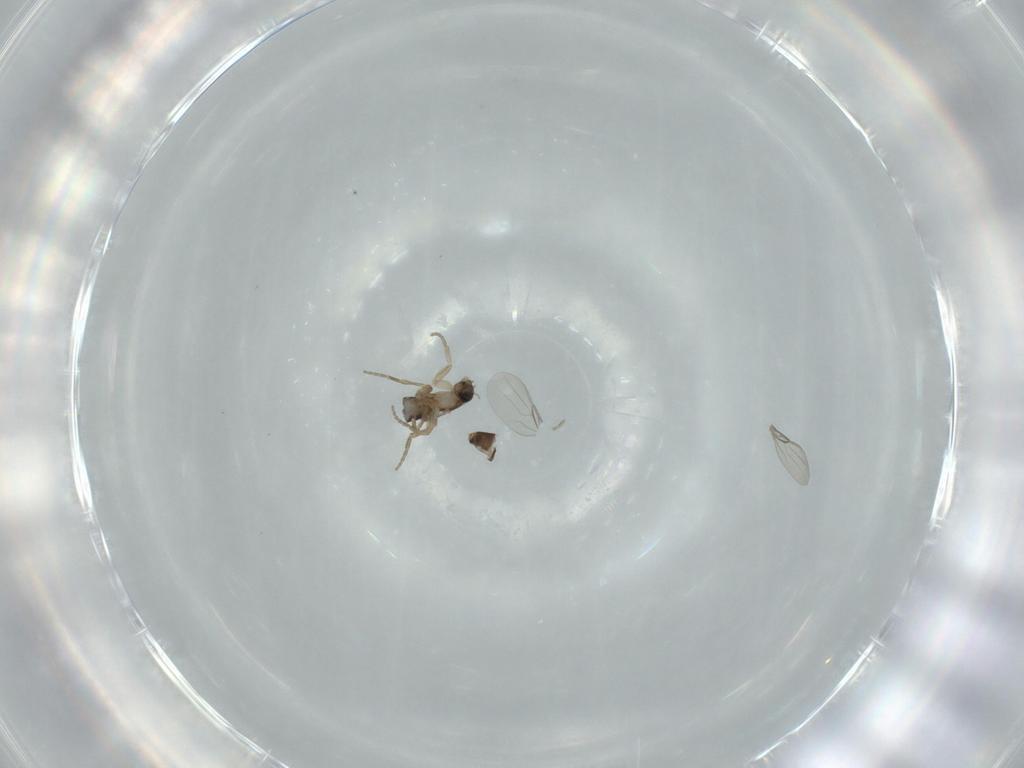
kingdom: Animalia
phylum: Arthropoda
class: Insecta
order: Diptera
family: Phoridae
